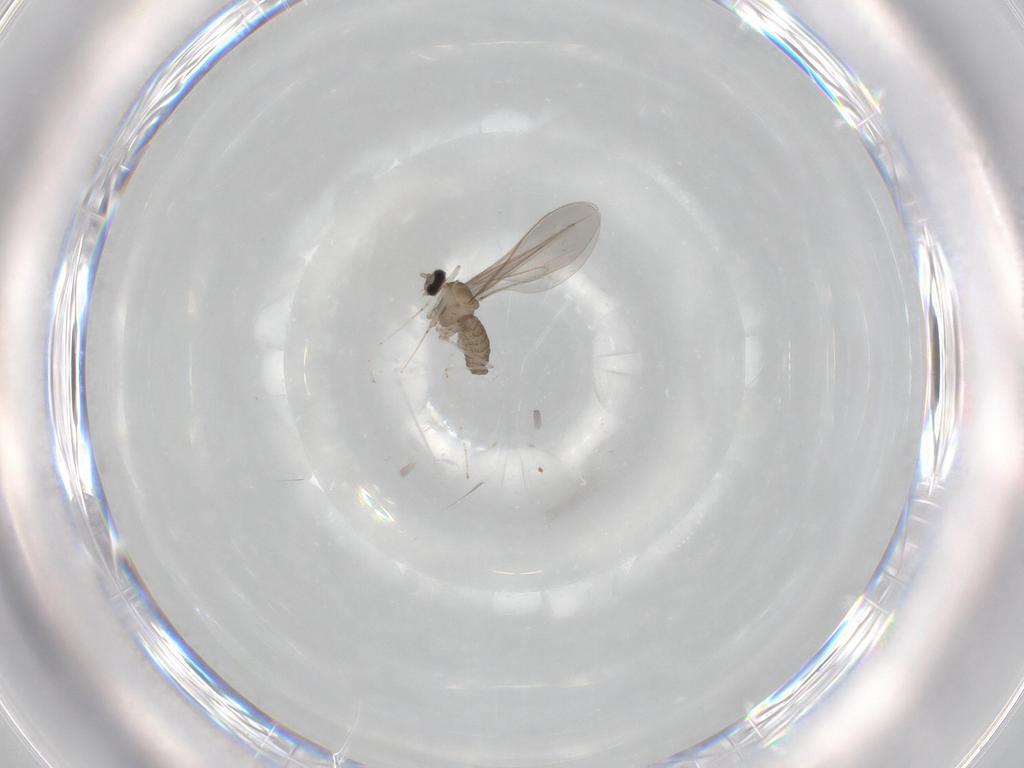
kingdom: Animalia
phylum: Arthropoda
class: Insecta
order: Diptera
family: Cecidomyiidae
